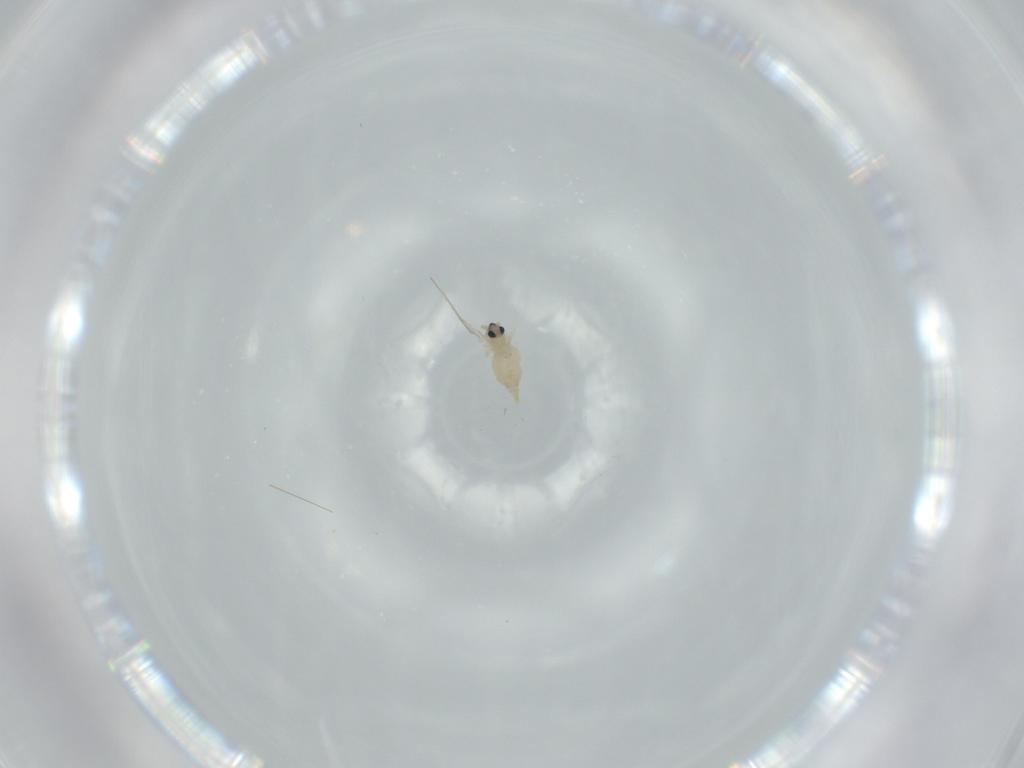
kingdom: Animalia
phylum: Arthropoda
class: Insecta
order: Diptera
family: Cecidomyiidae
